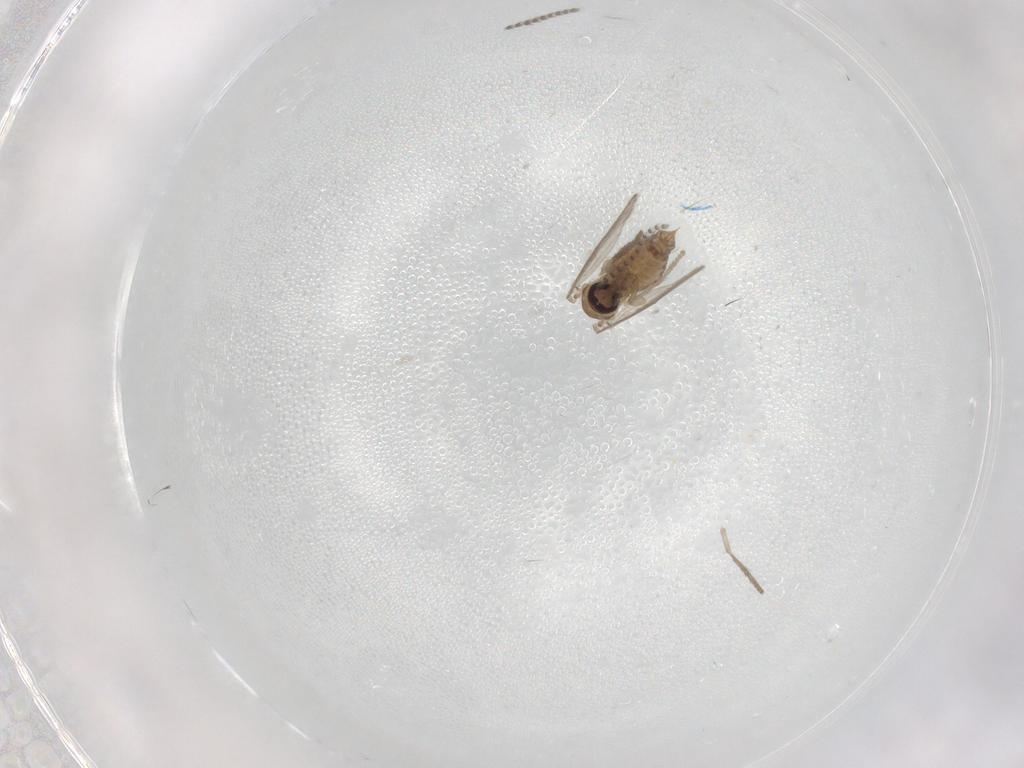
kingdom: Animalia
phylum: Arthropoda
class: Insecta
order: Diptera
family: Psychodidae
